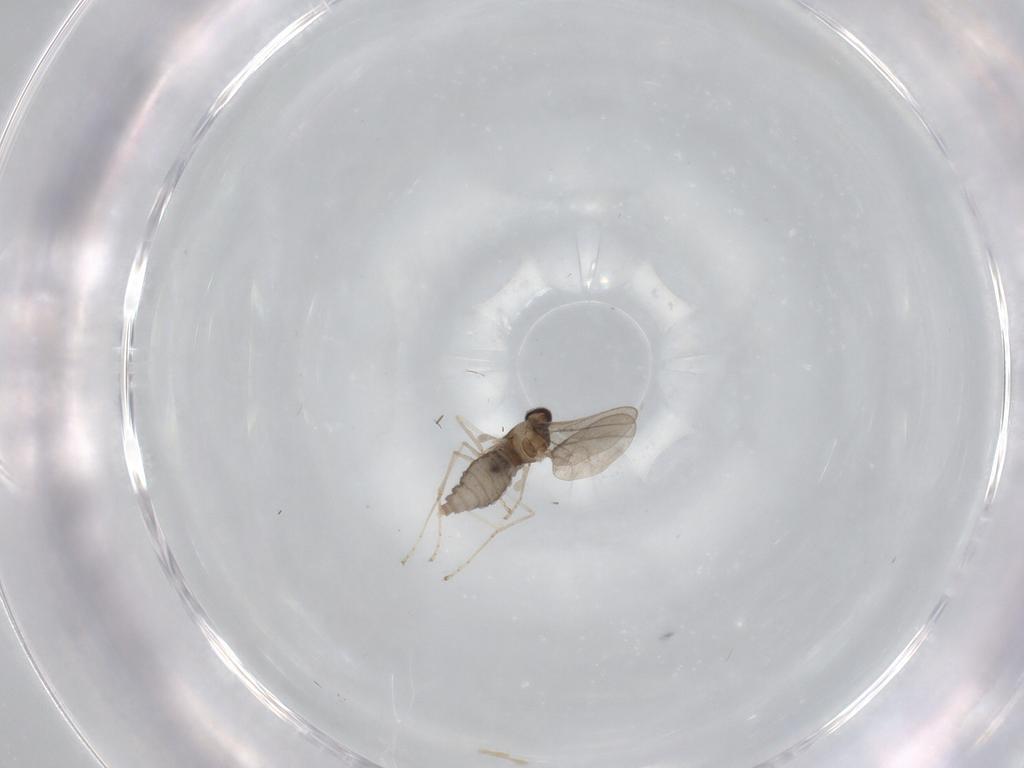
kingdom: Animalia
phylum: Arthropoda
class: Insecta
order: Diptera
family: Cecidomyiidae
